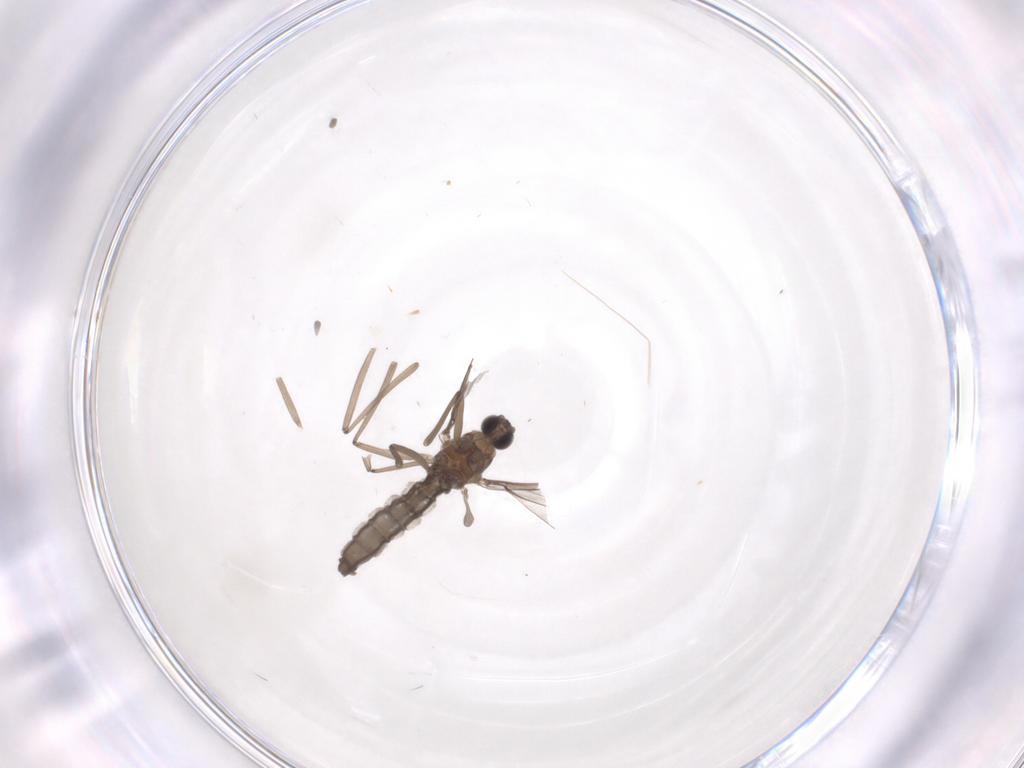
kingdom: Animalia
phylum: Arthropoda
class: Insecta
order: Diptera
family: Cecidomyiidae
